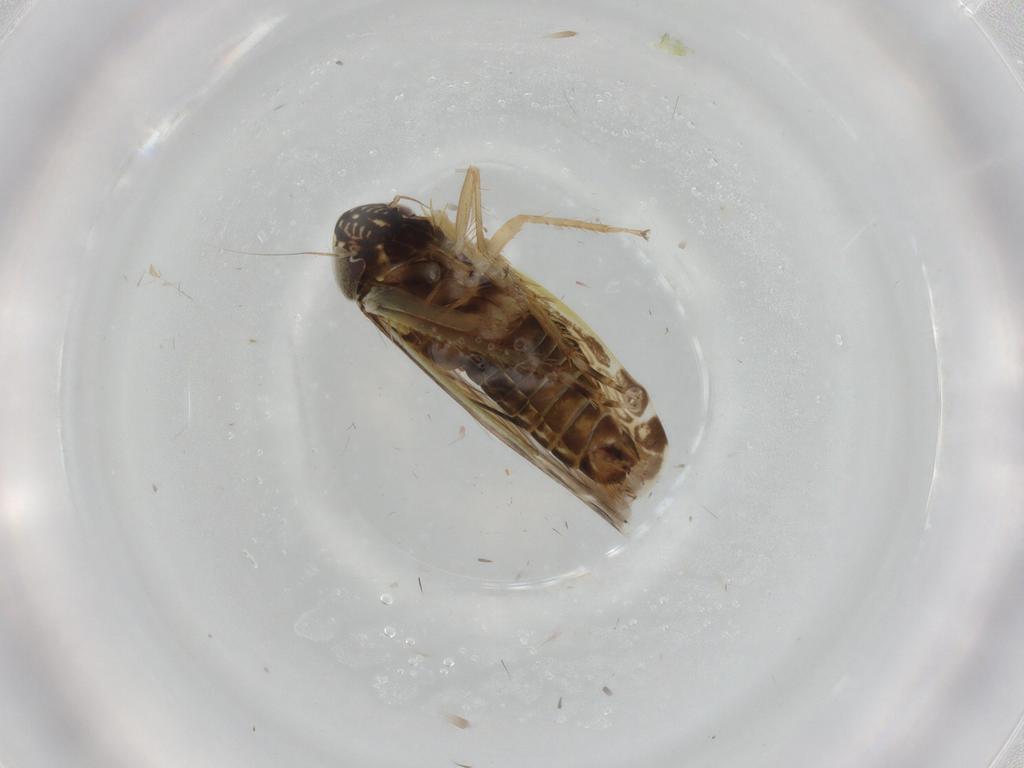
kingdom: Animalia
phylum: Arthropoda
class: Insecta
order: Hemiptera
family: Cicadellidae
